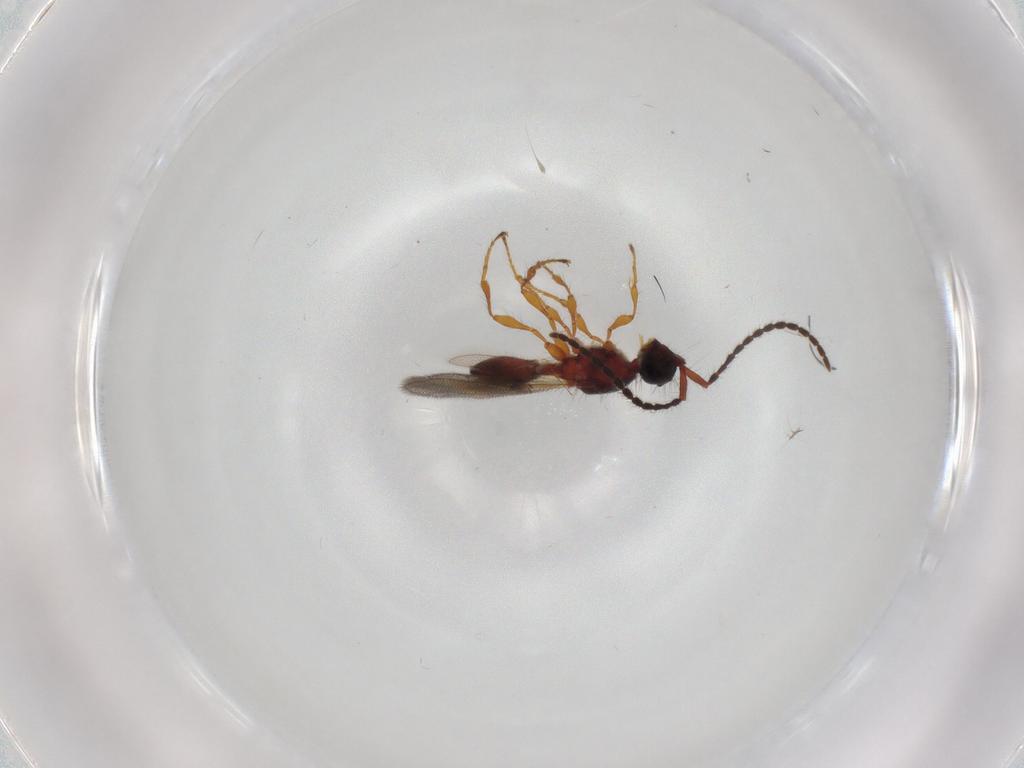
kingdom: Animalia
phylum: Arthropoda
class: Insecta
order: Hymenoptera
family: Diapriidae
